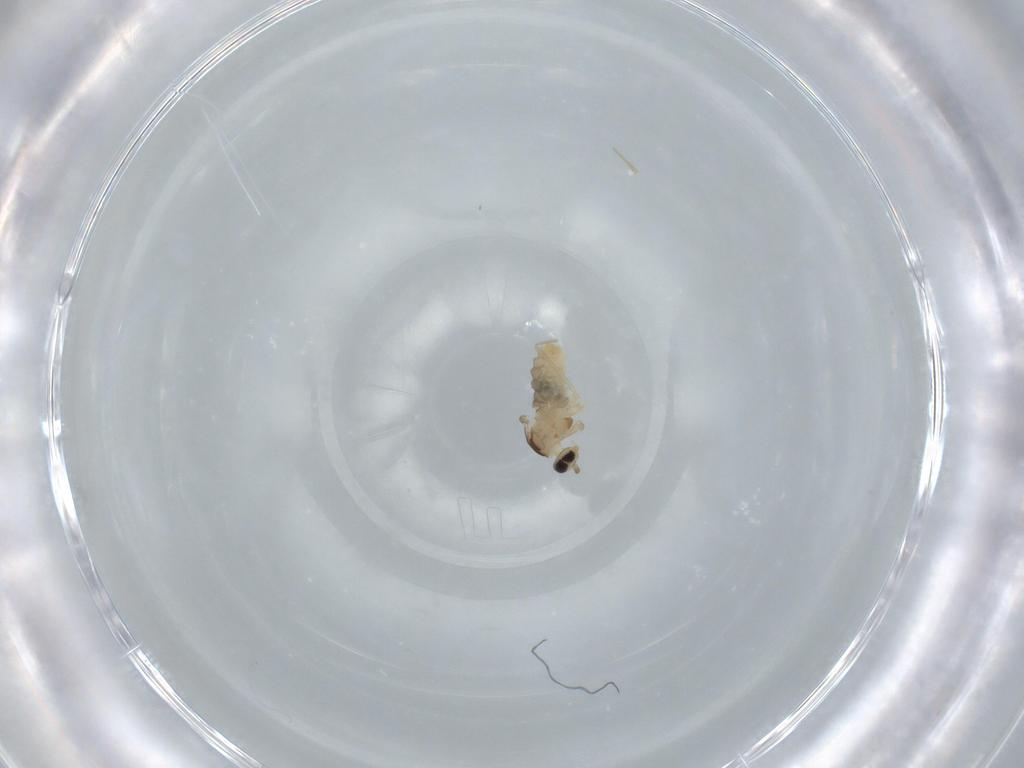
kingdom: Animalia
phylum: Arthropoda
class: Insecta
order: Diptera
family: Cecidomyiidae
